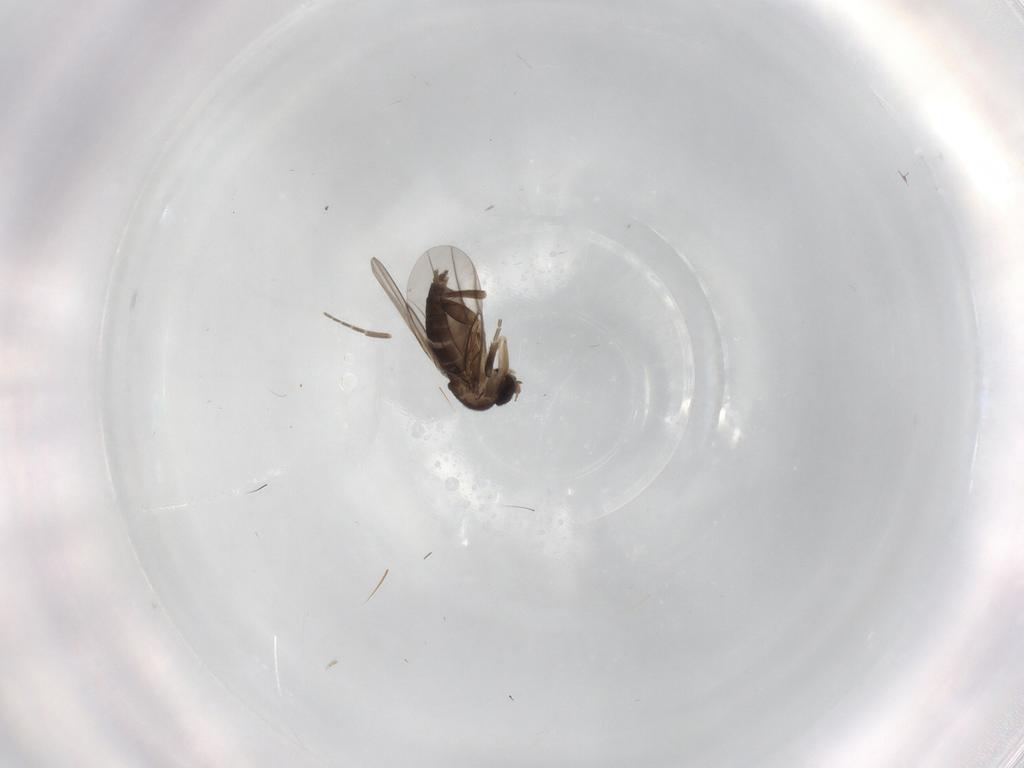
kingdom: Animalia
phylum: Arthropoda
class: Insecta
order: Diptera
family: Phoridae
